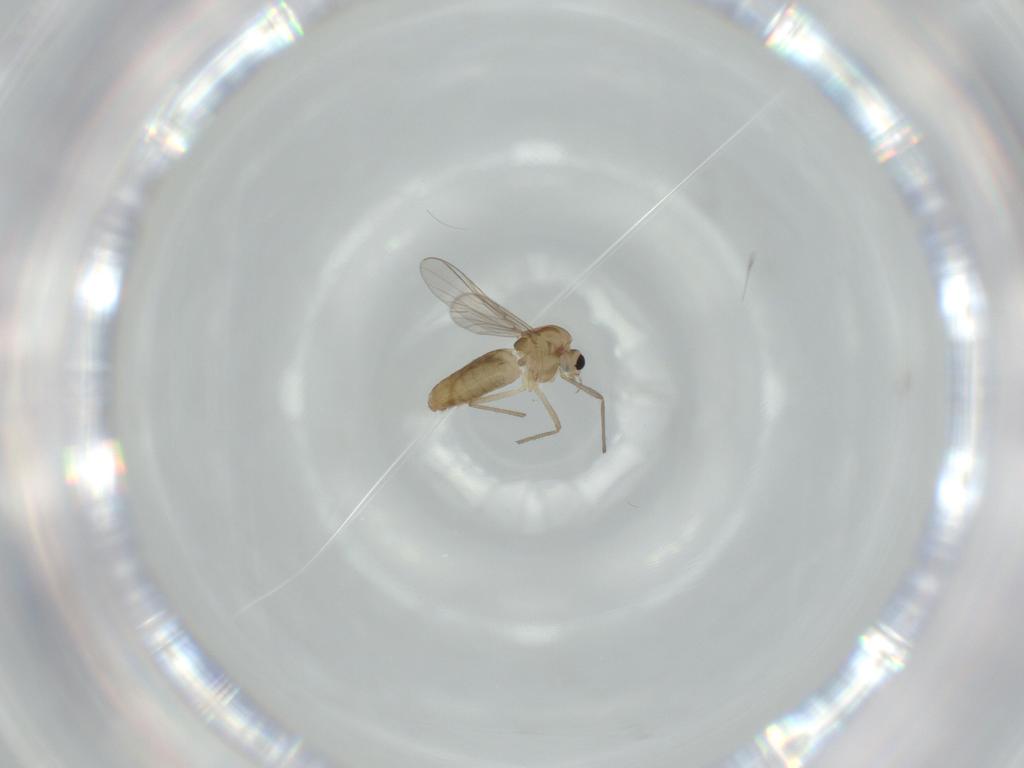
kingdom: Animalia
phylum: Arthropoda
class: Insecta
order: Diptera
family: Chironomidae
